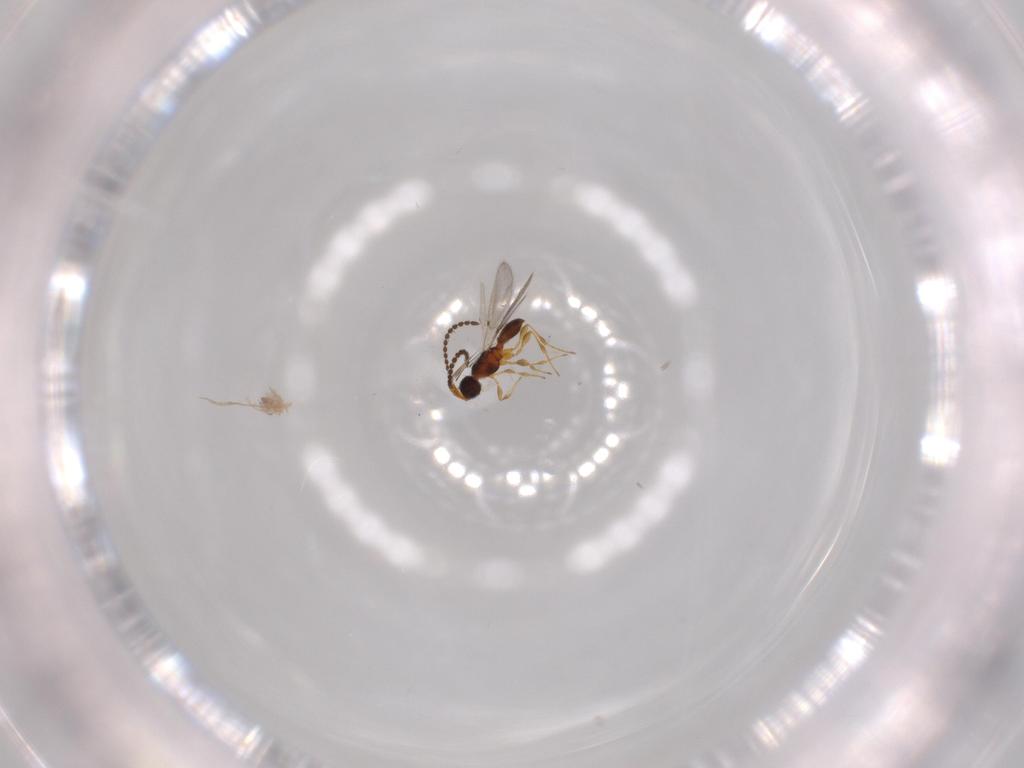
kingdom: Animalia
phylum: Arthropoda
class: Insecta
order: Hymenoptera
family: Diapriidae
